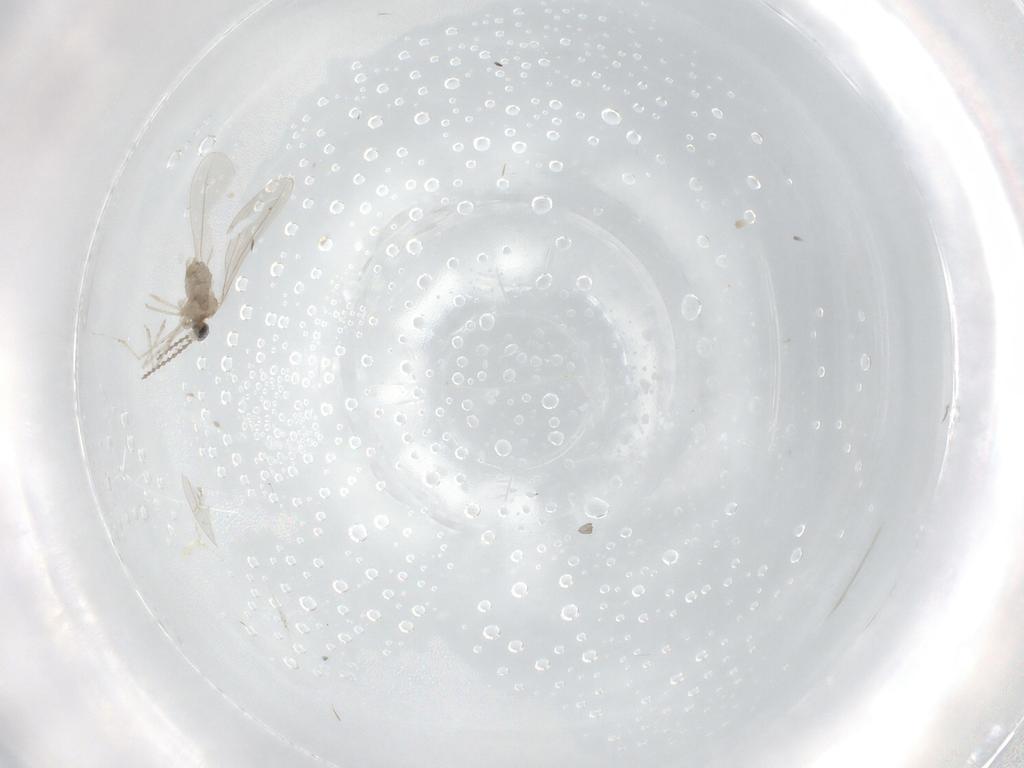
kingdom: Animalia
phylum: Arthropoda
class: Insecta
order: Diptera
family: Cecidomyiidae
